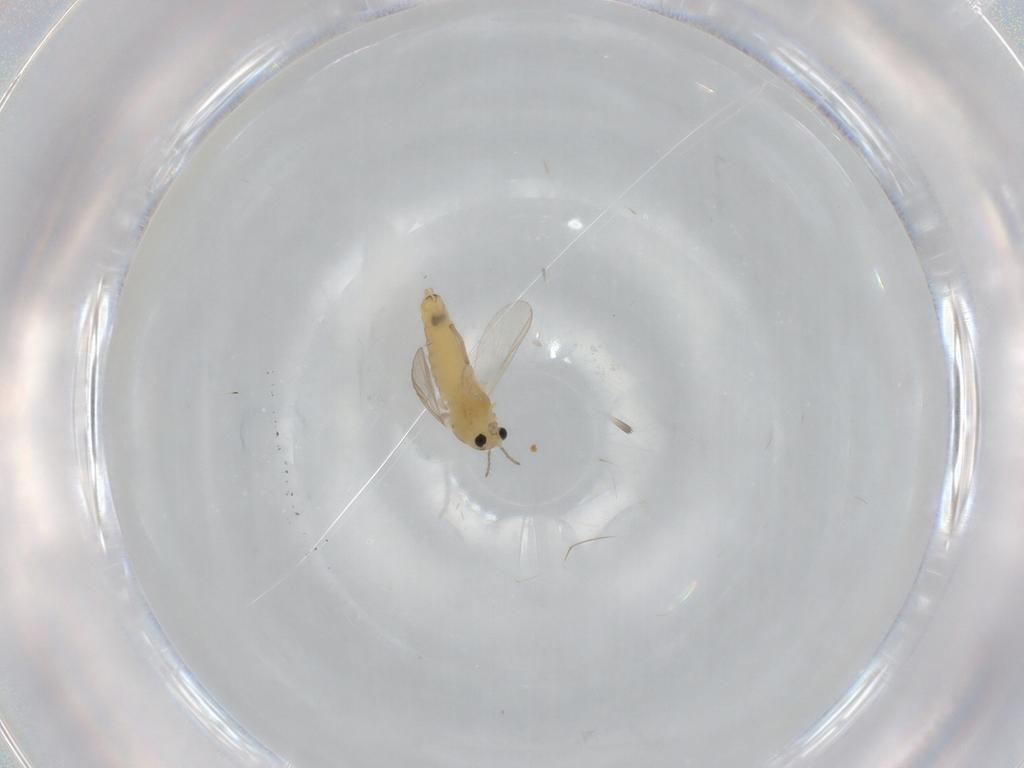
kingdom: Animalia
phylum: Arthropoda
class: Insecta
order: Diptera
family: Chironomidae
